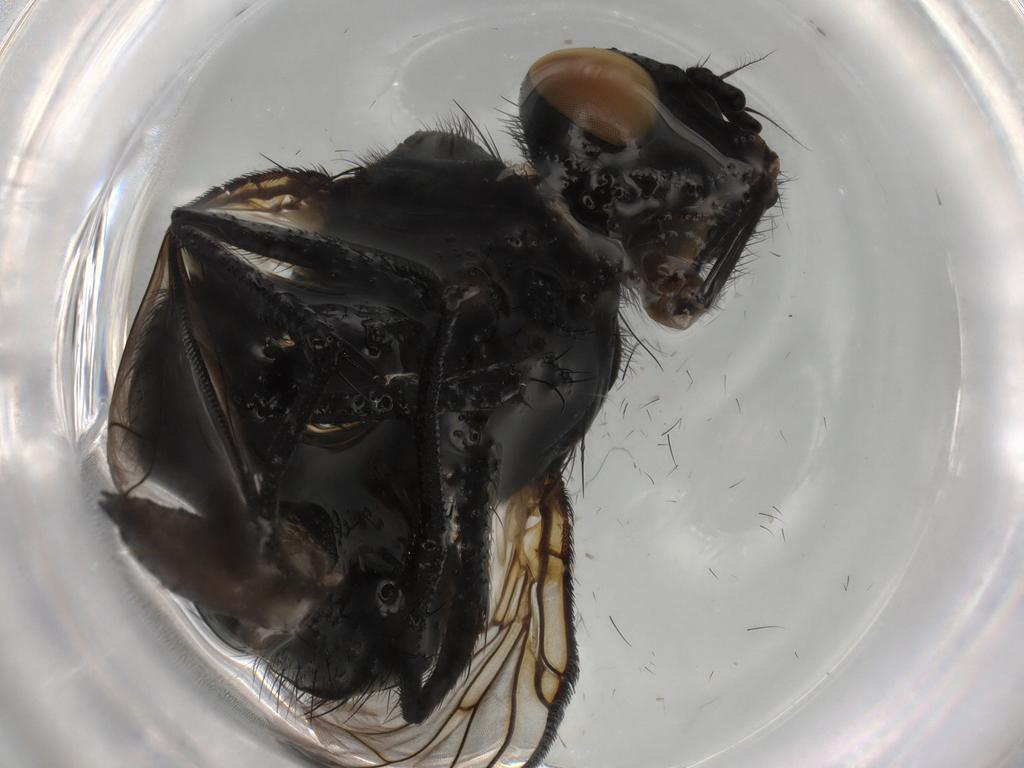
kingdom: Animalia
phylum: Arthropoda
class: Insecta
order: Diptera
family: Muscidae
